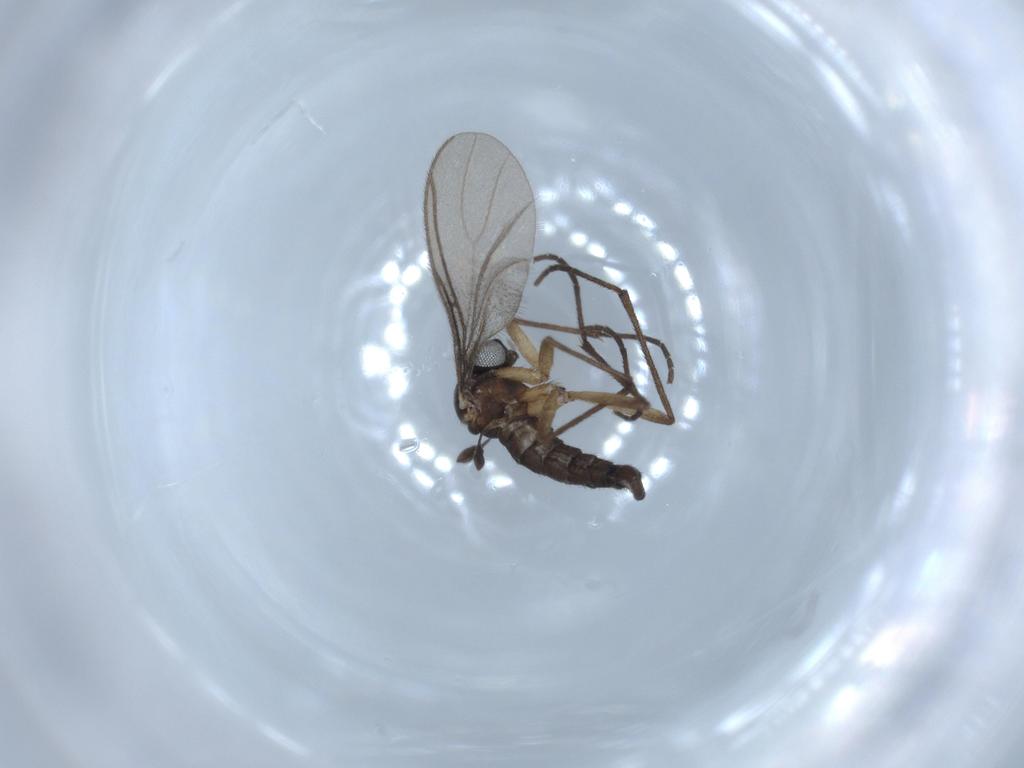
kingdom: Animalia
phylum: Arthropoda
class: Insecta
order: Diptera
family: Sciaridae
